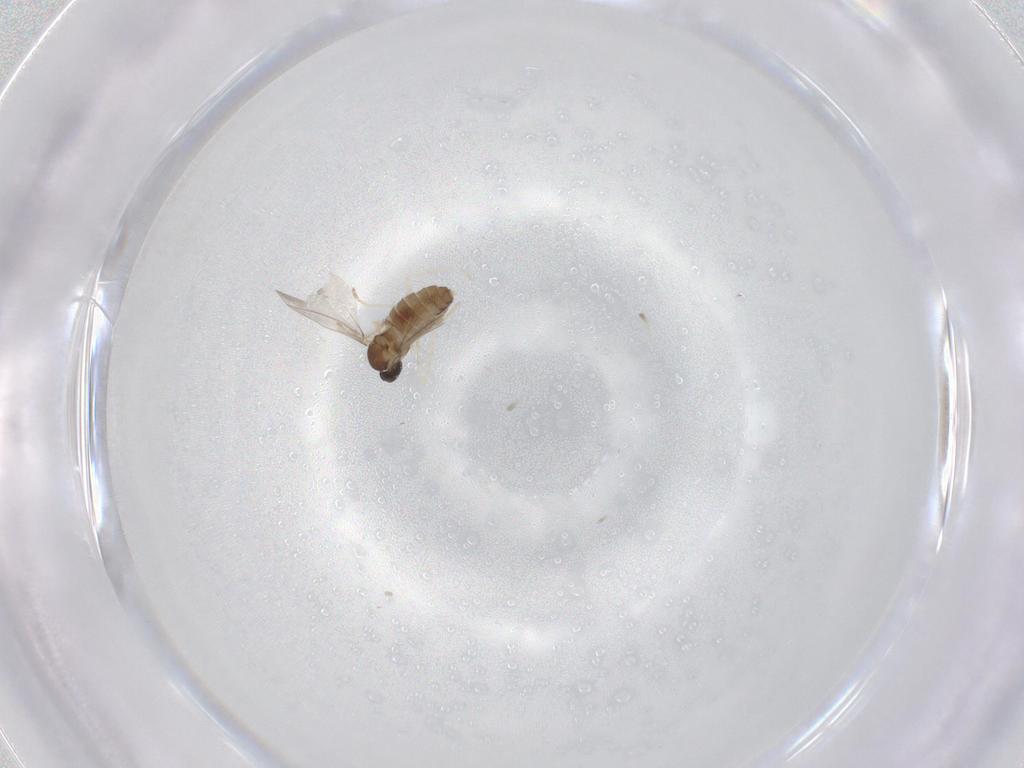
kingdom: Animalia
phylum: Arthropoda
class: Insecta
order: Diptera
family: Cecidomyiidae
